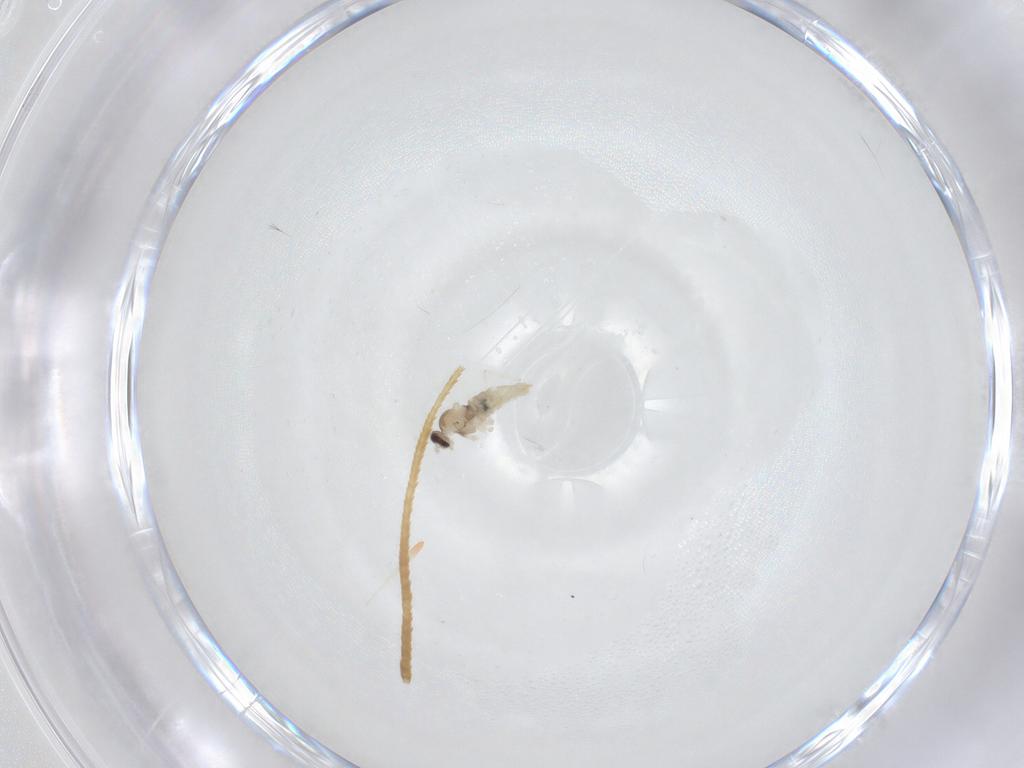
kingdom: Animalia
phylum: Arthropoda
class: Insecta
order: Diptera
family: Cecidomyiidae
